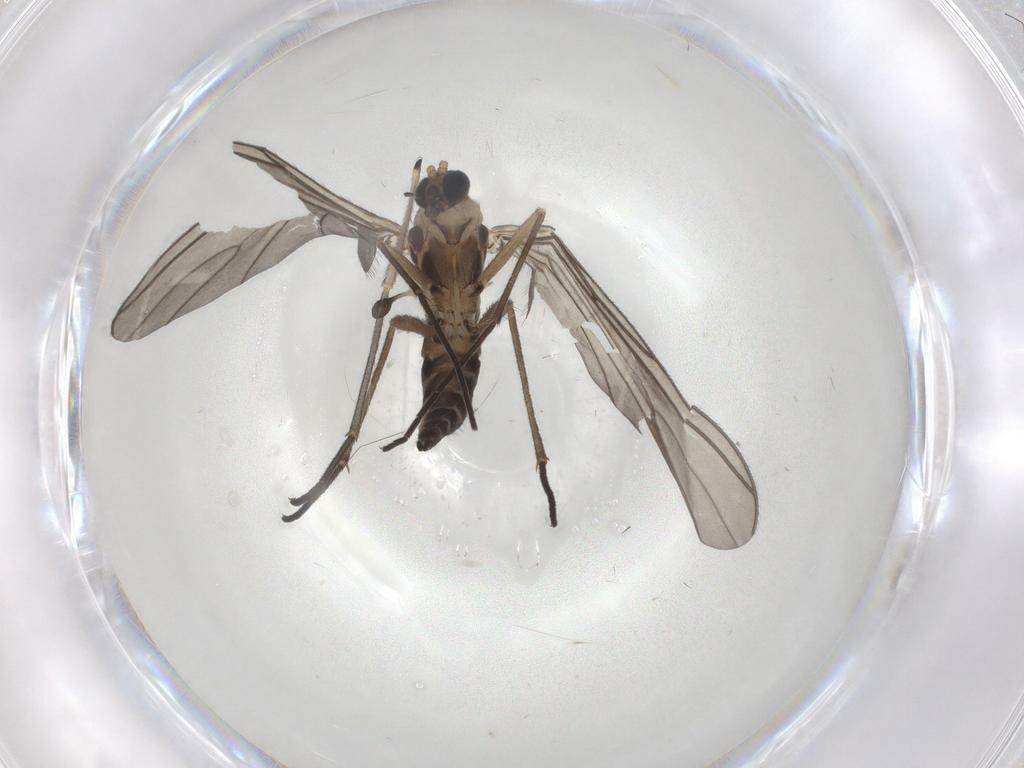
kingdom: Animalia
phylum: Arthropoda
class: Insecta
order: Diptera
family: Sciaridae
